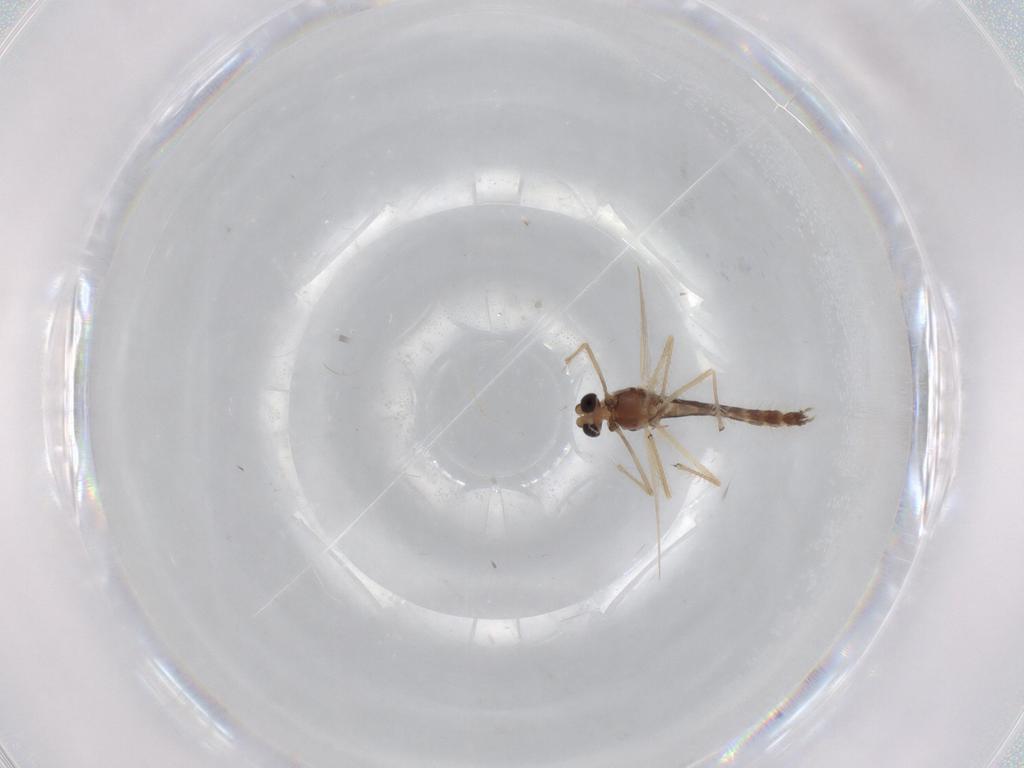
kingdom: Animalia
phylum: Arthropoda
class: Insecta
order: Diptera
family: Chironomidae
